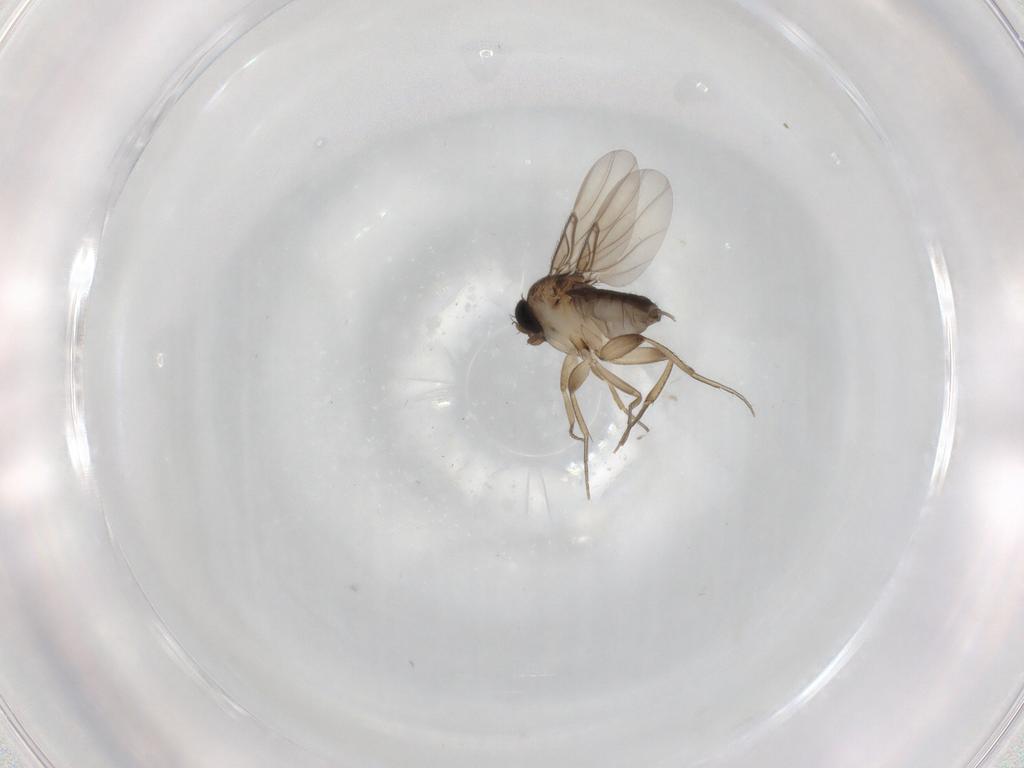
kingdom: Animalia
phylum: Arthropoda
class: Insecta
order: Diptera
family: Phoridae
